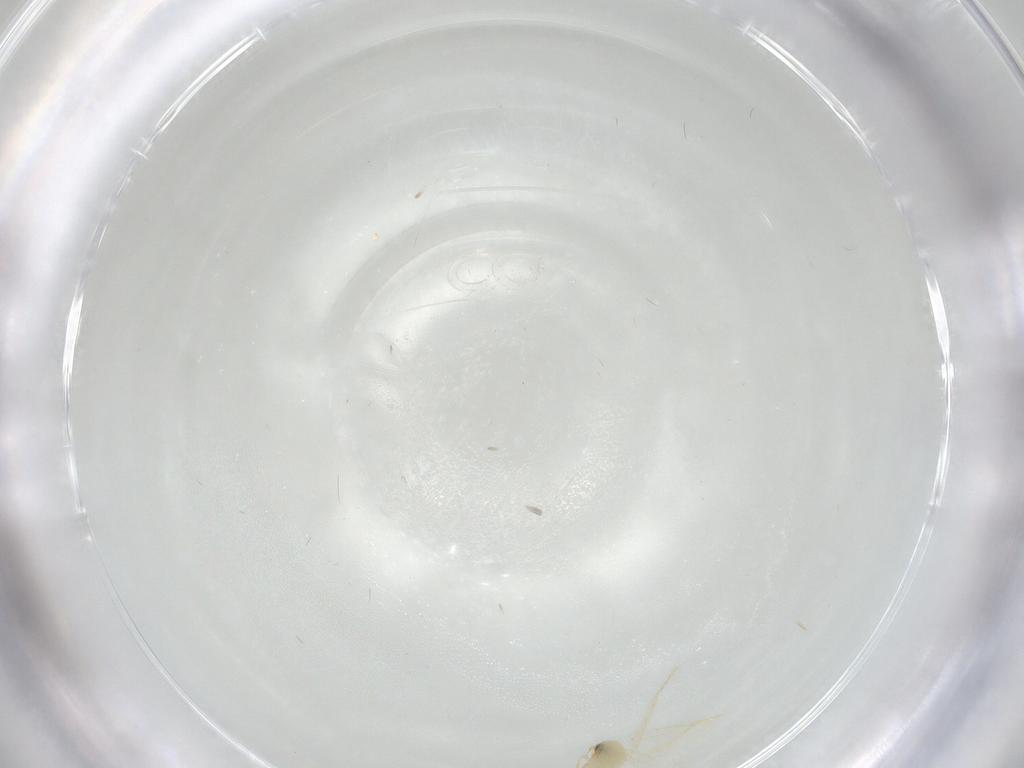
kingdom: Animalia
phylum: Arthropoda
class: Insecta
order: Hemiptera
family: Aleyrodidae
